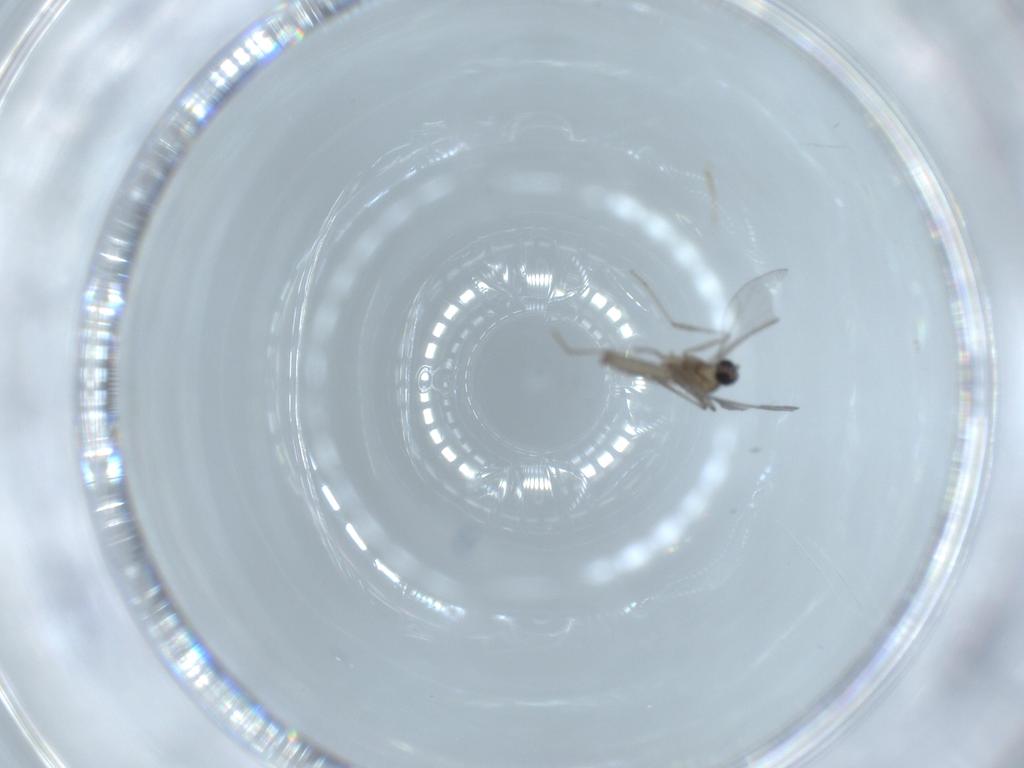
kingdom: Animalia
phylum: Arthropoda
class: Insecta
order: Diptera
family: Cecidomyiidae
